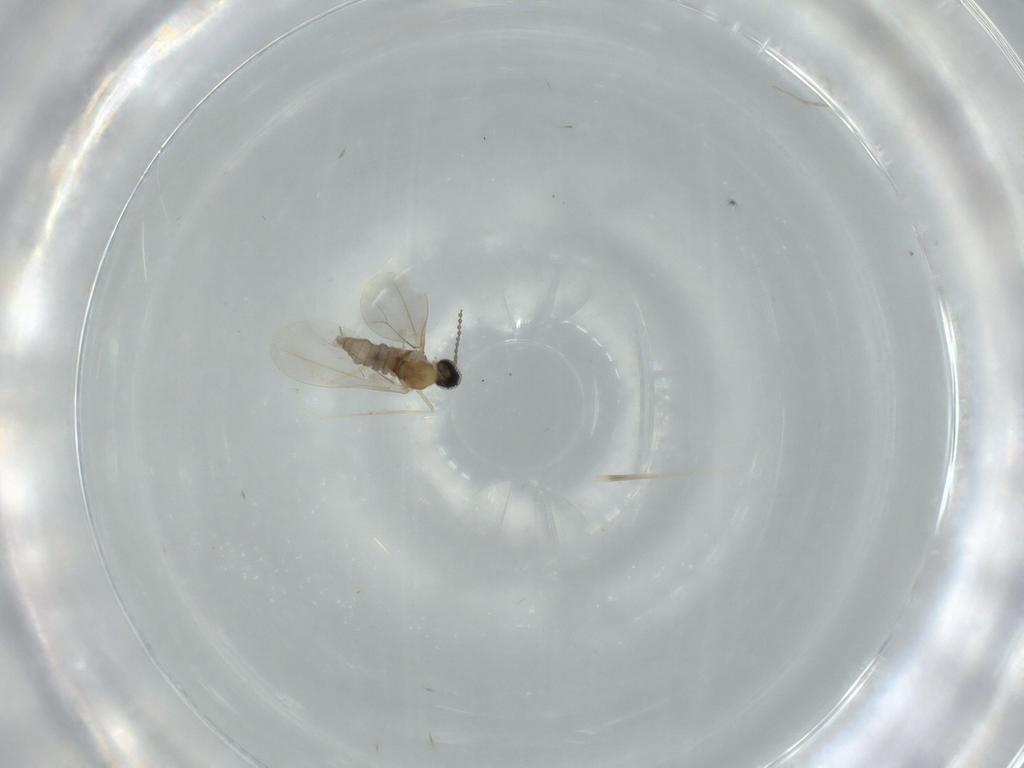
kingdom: Animalia
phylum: Arthropoda
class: Insecta
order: Diptera
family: Cecidomyiidae
